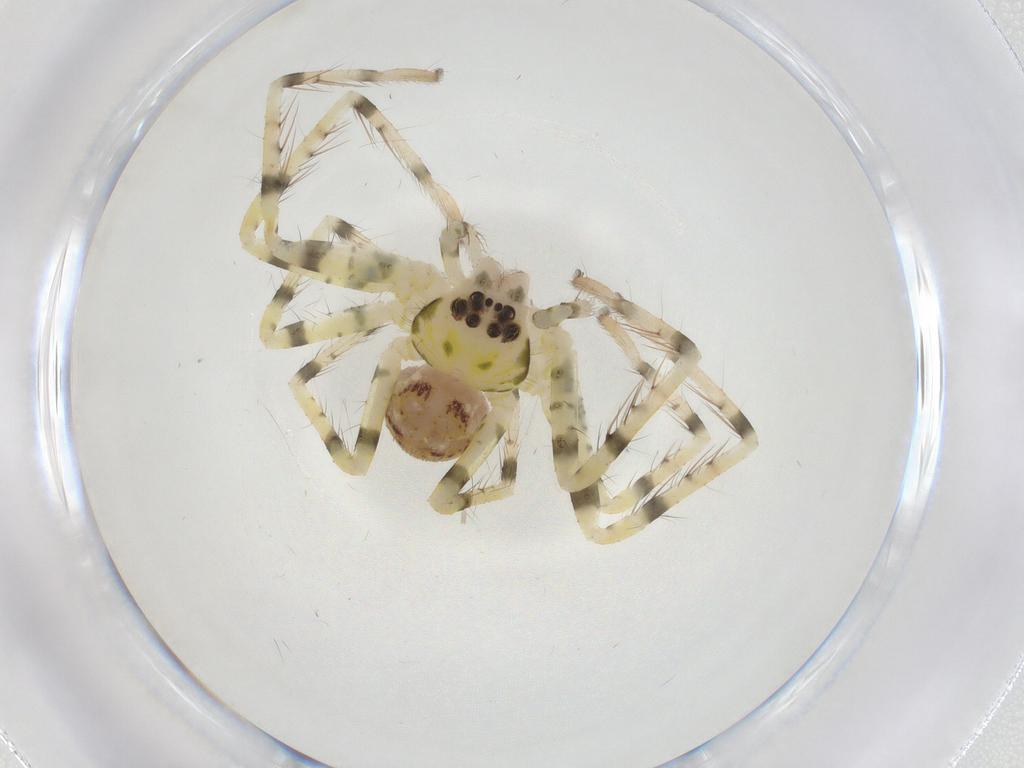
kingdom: Animalia
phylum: Arthropoda
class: Arachnida
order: Araneae
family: Sparassidae
